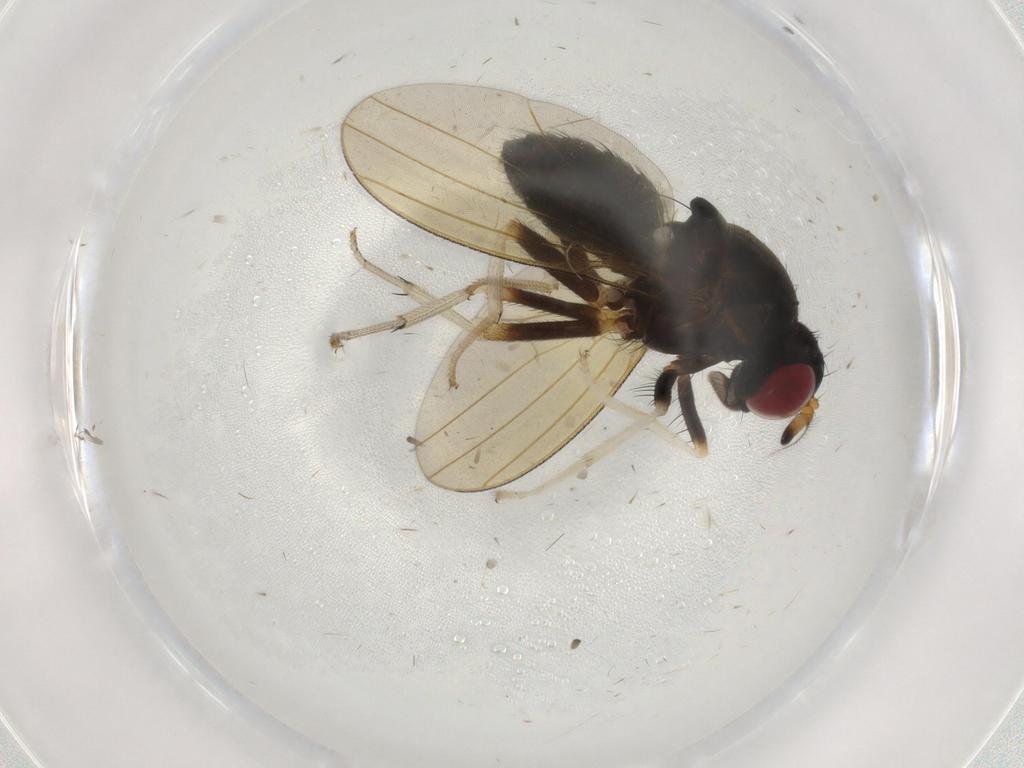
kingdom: Animalia
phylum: Arthropoda
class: Insecta
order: Diptera
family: Lauxaniidae
